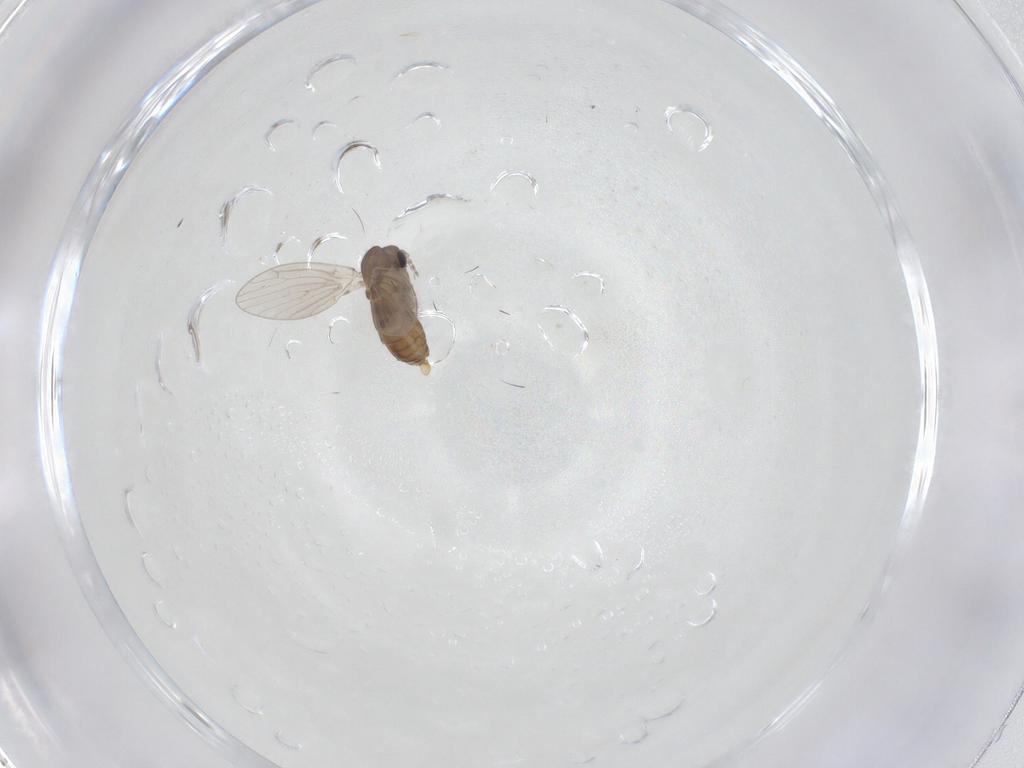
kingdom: Animalia
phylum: Arthropoda
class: Insecta
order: Diptera
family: Psychodidae
